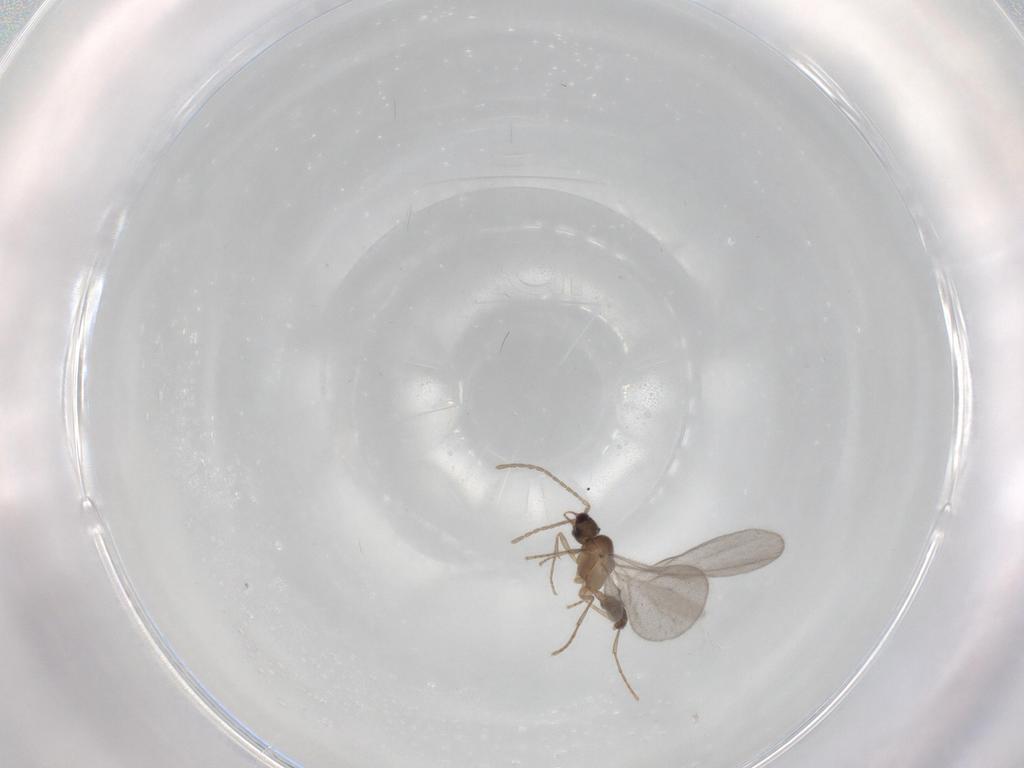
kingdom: Animalia
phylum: Arthropoda
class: Insecta
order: Hymenoptera
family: Formicidae
